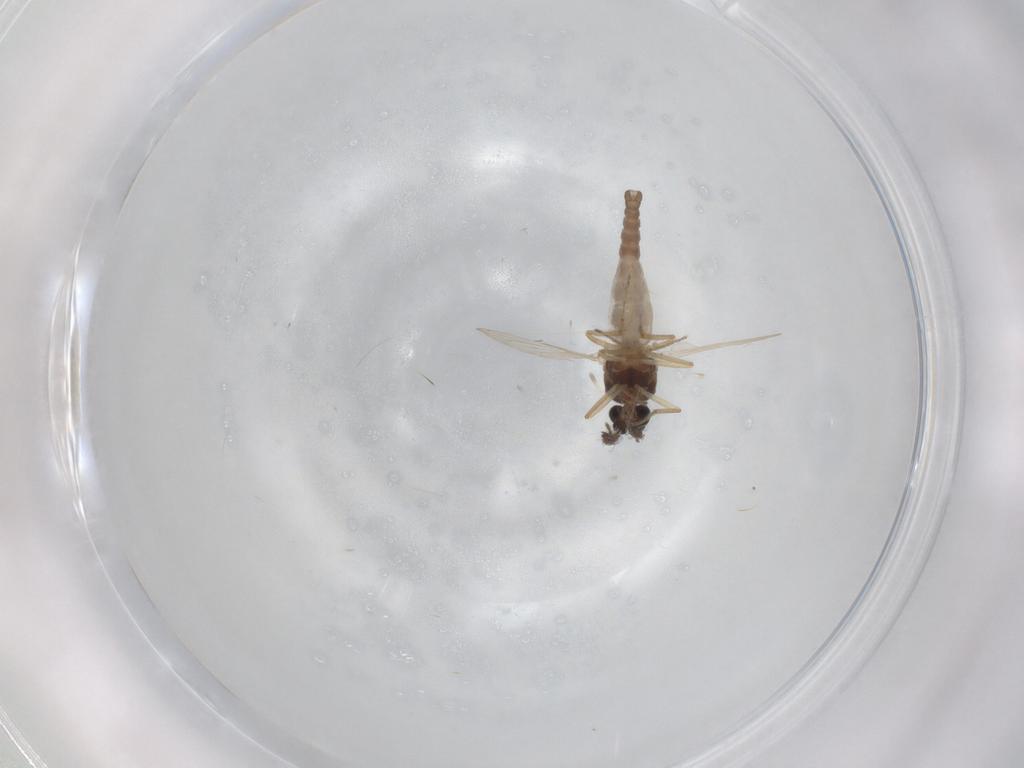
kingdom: Animalia
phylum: Arthropoda
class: Insecta
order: Diptera
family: Ceratopogonidae
